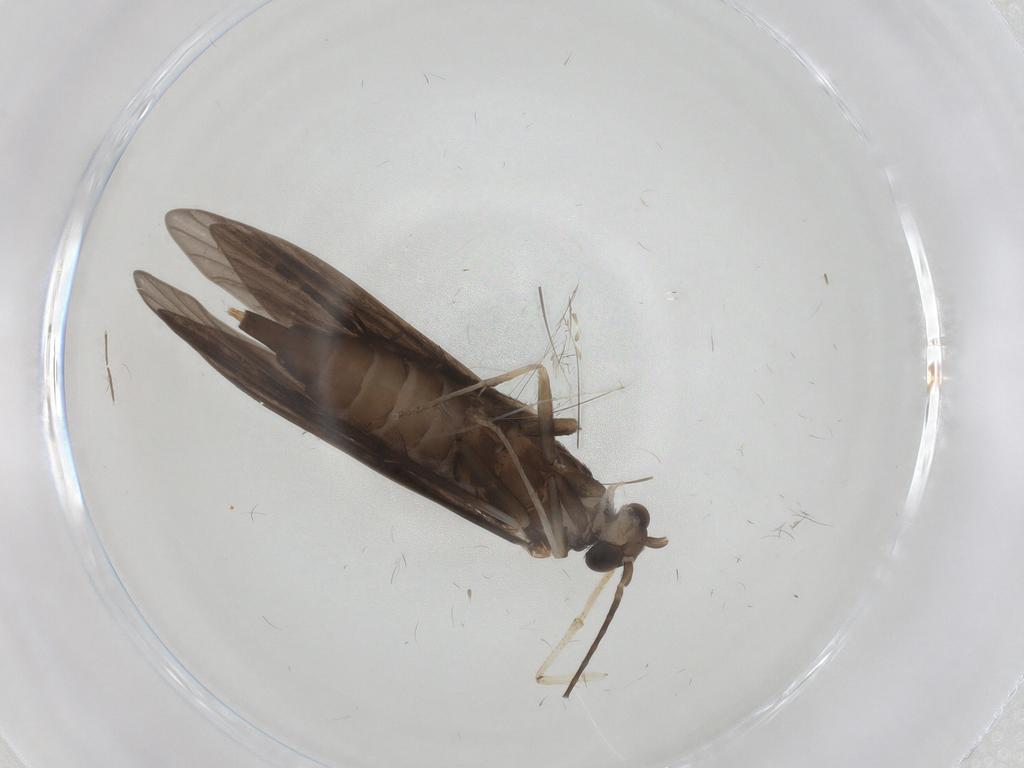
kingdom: Animalia
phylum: Arthropoda
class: Insecta
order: Trichoptera
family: Xiphocentronidae
